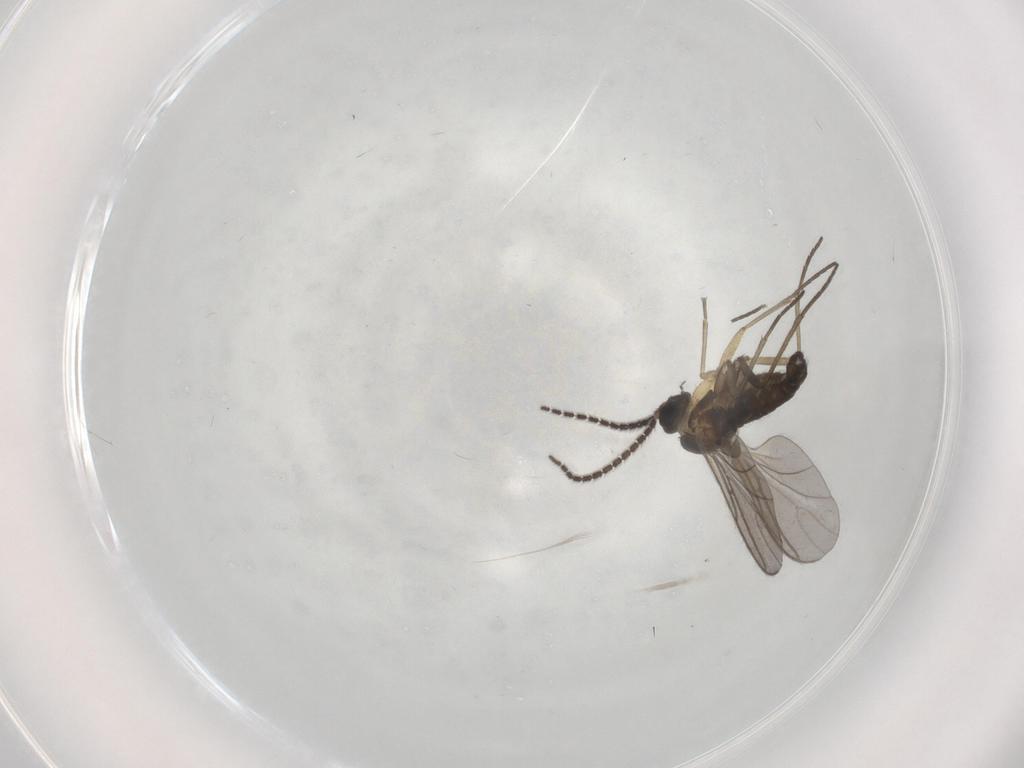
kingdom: Animalia
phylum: Arthropoda
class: Insecta
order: Diptera
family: Sciaridae
